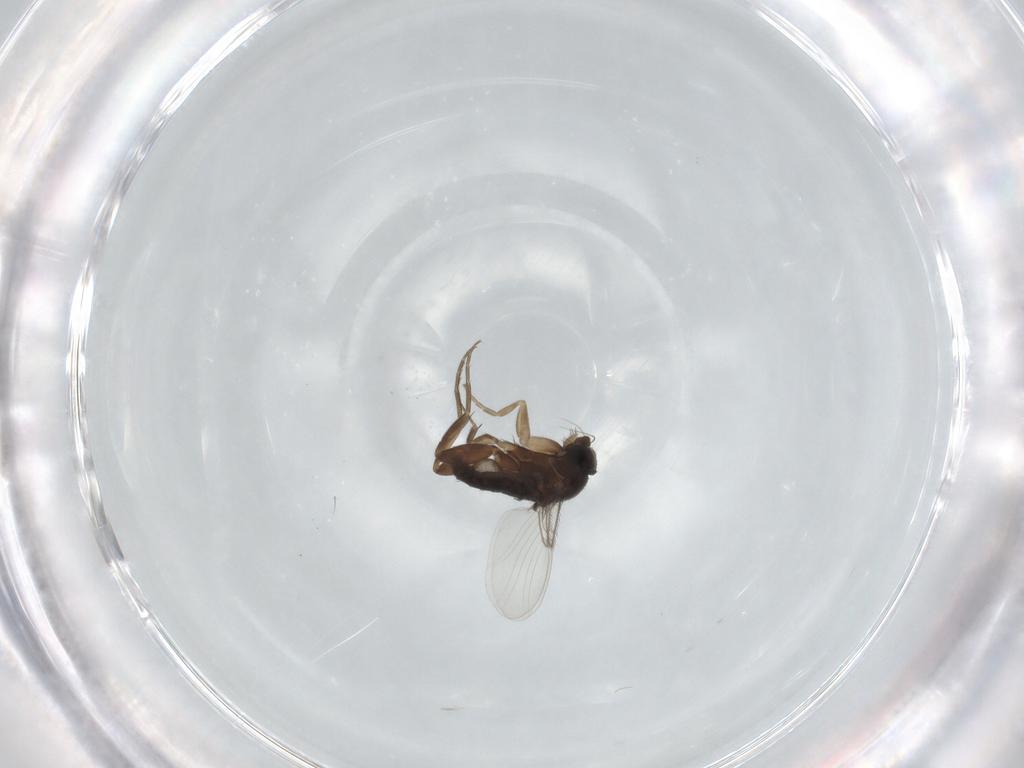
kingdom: Animalia
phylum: Arthropoda
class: Insecta
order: Diptera
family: Phoridae
